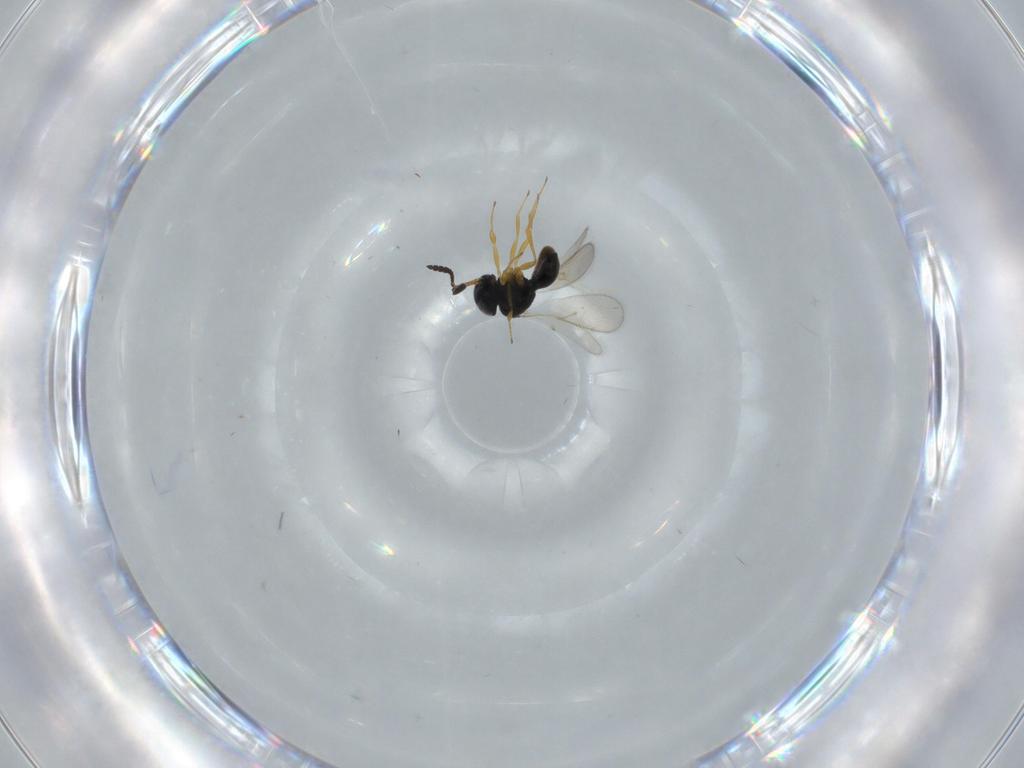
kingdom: Animalia
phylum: Arthropoda
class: Insecta
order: Hymenoptera
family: Scelionidae
